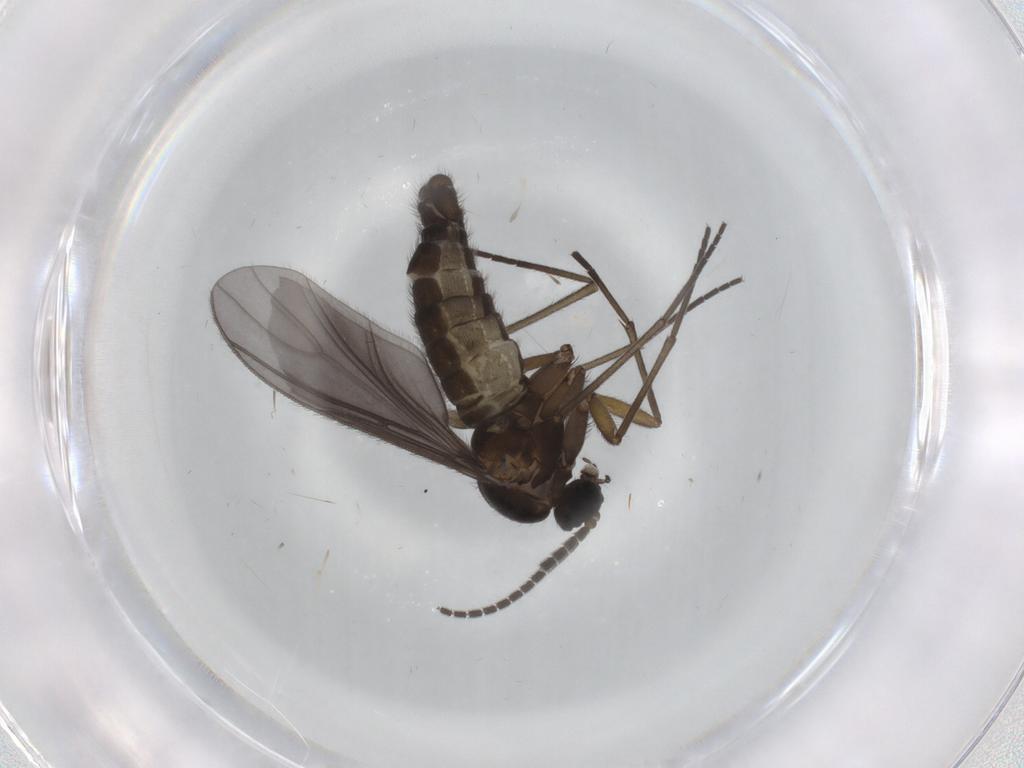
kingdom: Animalia
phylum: Arthropoda
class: Insecta
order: Diptera
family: Sciaridae
